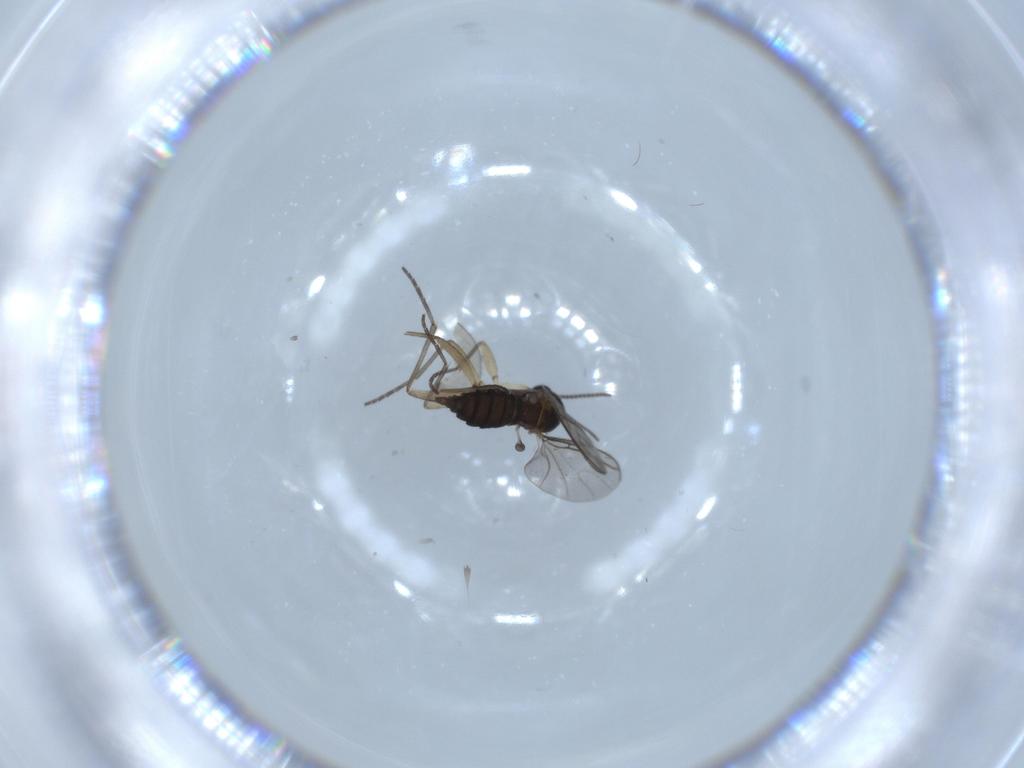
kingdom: Animalia
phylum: Arthropoda
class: Insecta
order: Diptera
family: Sciaridae
